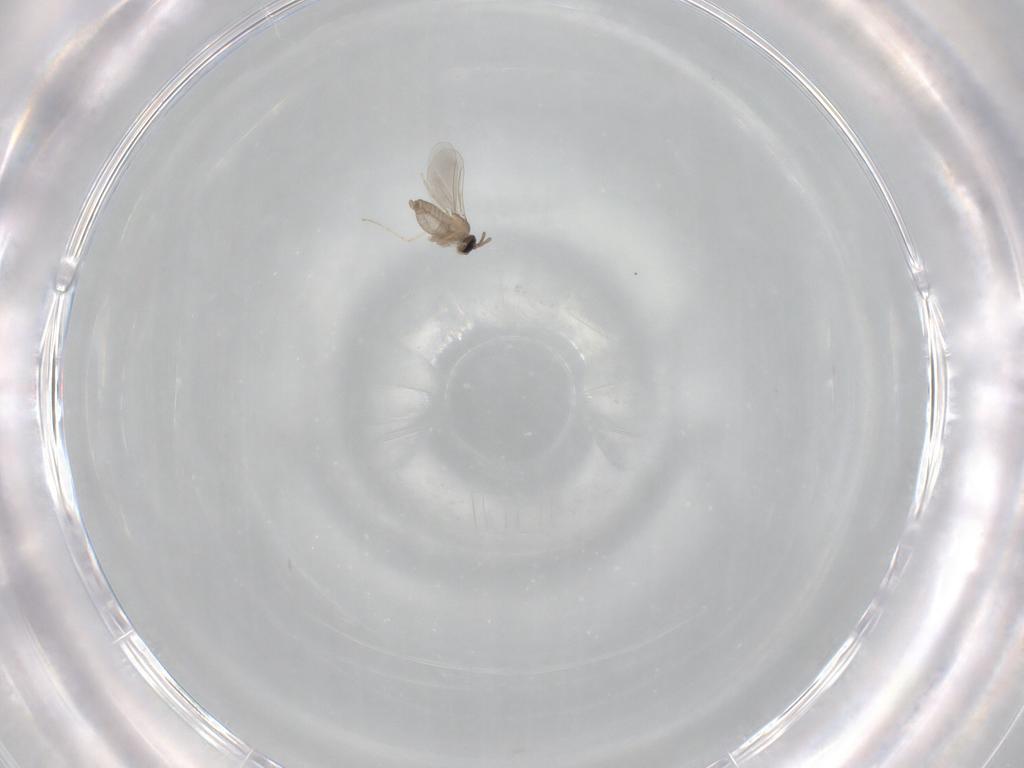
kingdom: Animalia
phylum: Arthropoda
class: Insecta
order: Diptera
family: Cecidomyiidae
